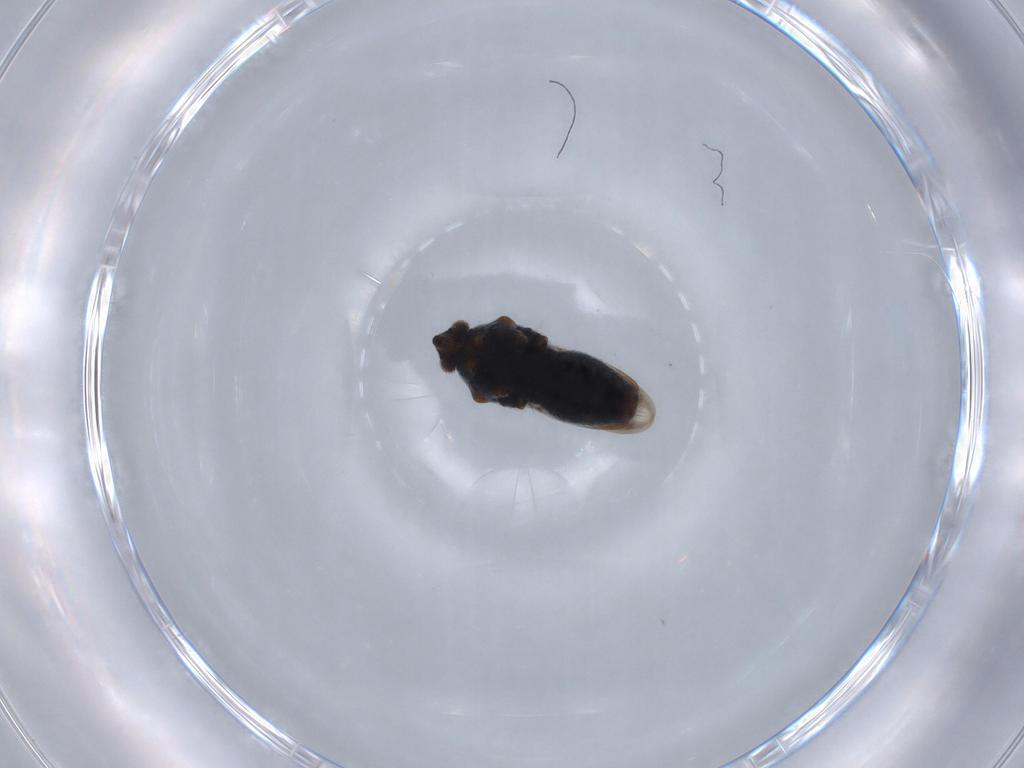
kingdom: Animalia
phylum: Arthropoda
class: Insecta
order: Hemiptera
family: Veliidae
